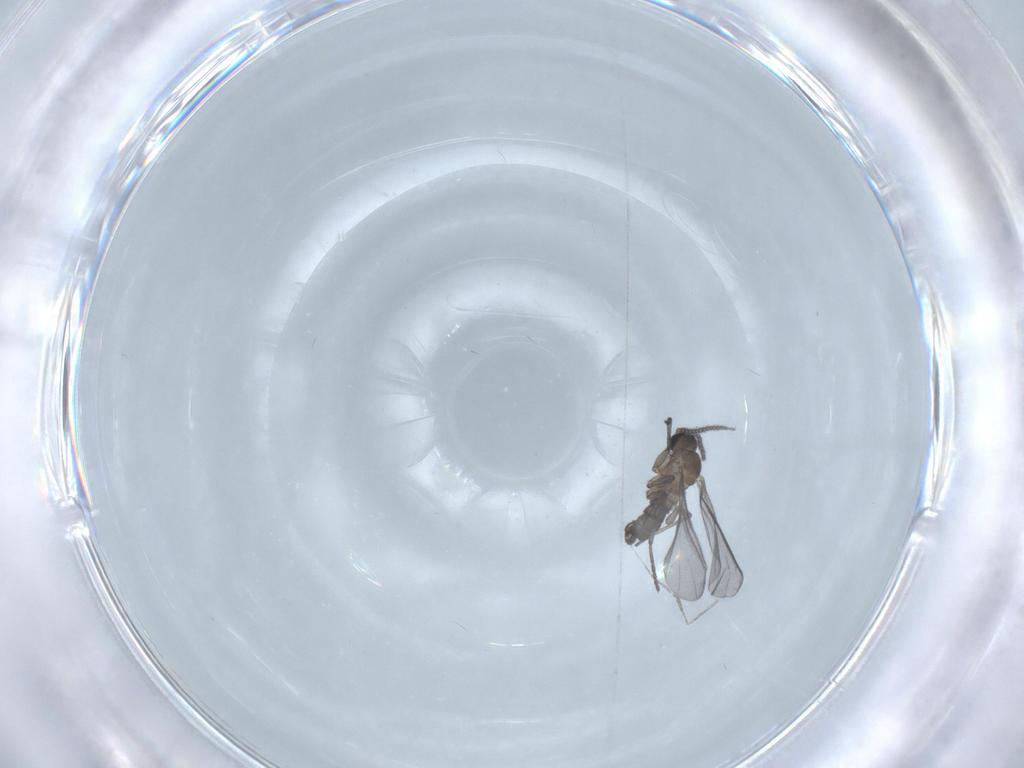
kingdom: Animalia
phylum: Arthropoda
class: Insecta
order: Diptera
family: Sciaridae
